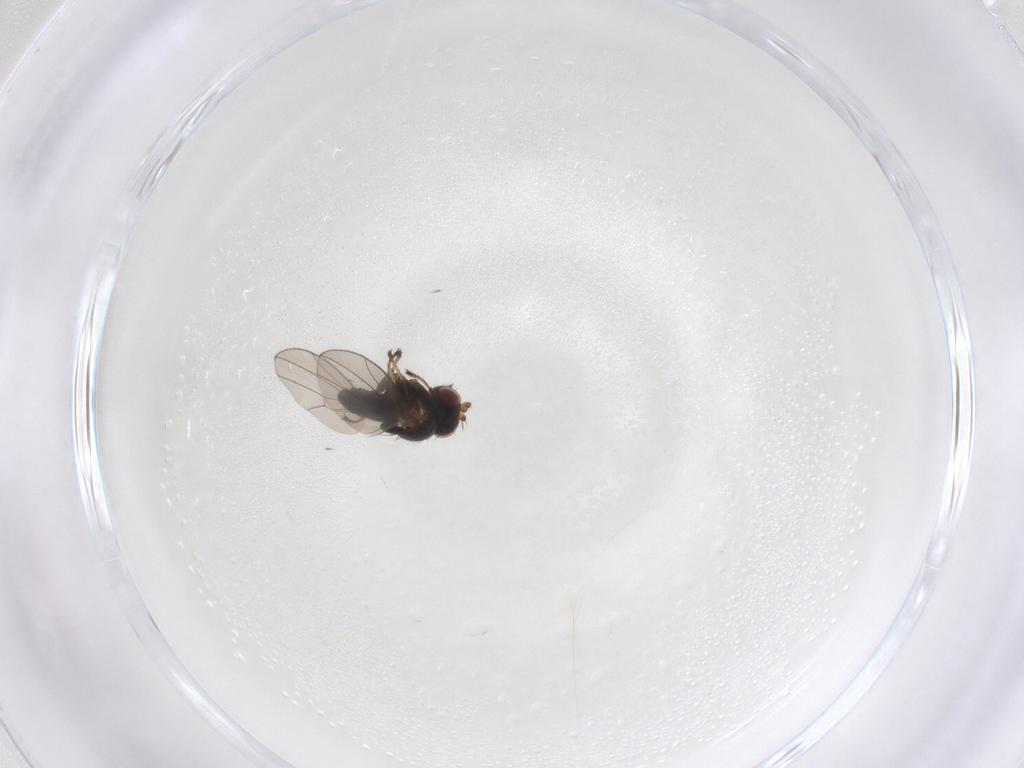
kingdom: Animalia
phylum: Arthropoda
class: Insecta
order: Diptera
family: Ephydridae
